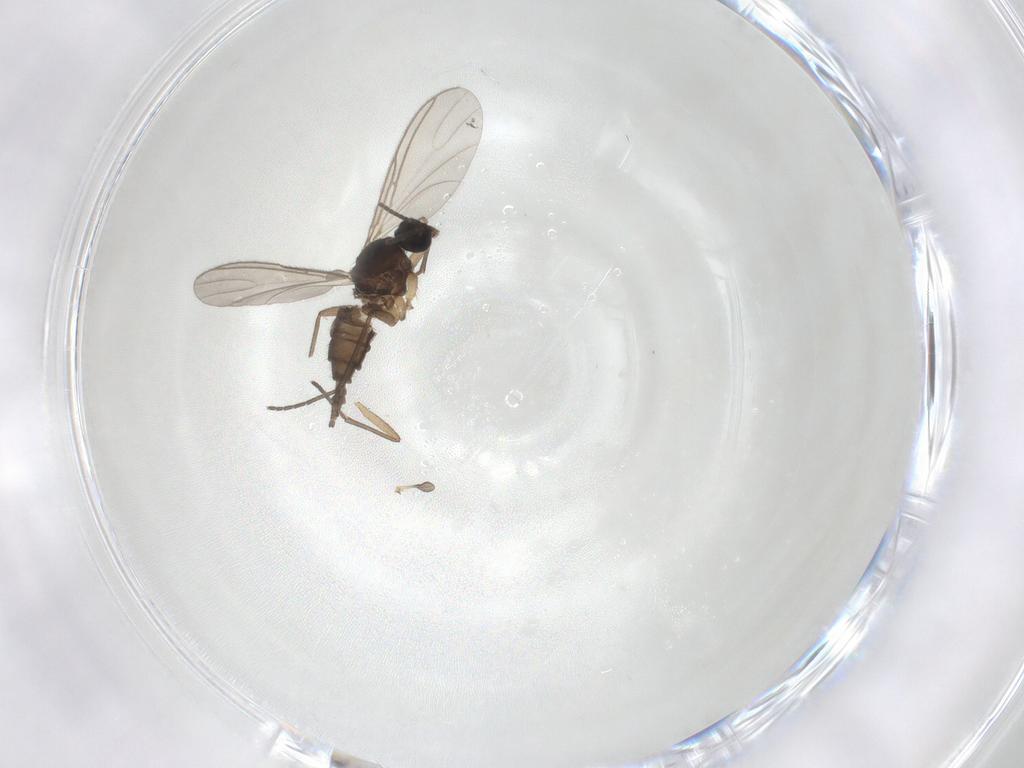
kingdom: Animalia
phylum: Arthropoda
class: Insecta
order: Diptera
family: Sciaridae
